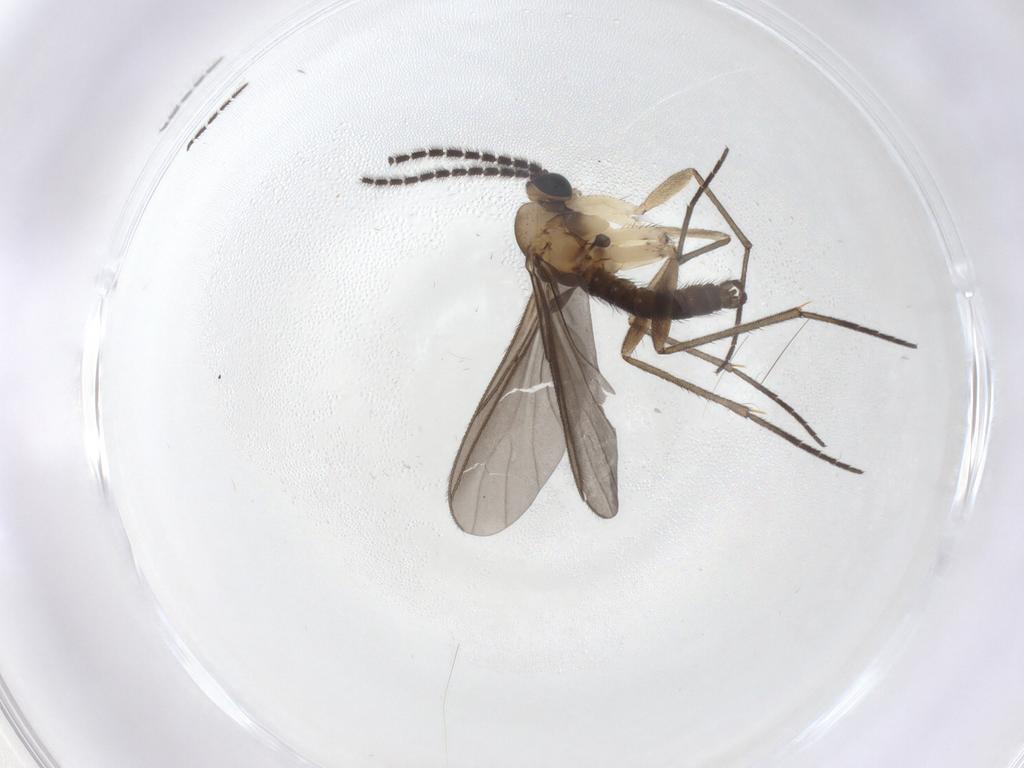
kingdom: Animalia
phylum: Arthropoda
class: Insecta
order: Diptera
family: Sciaridae
